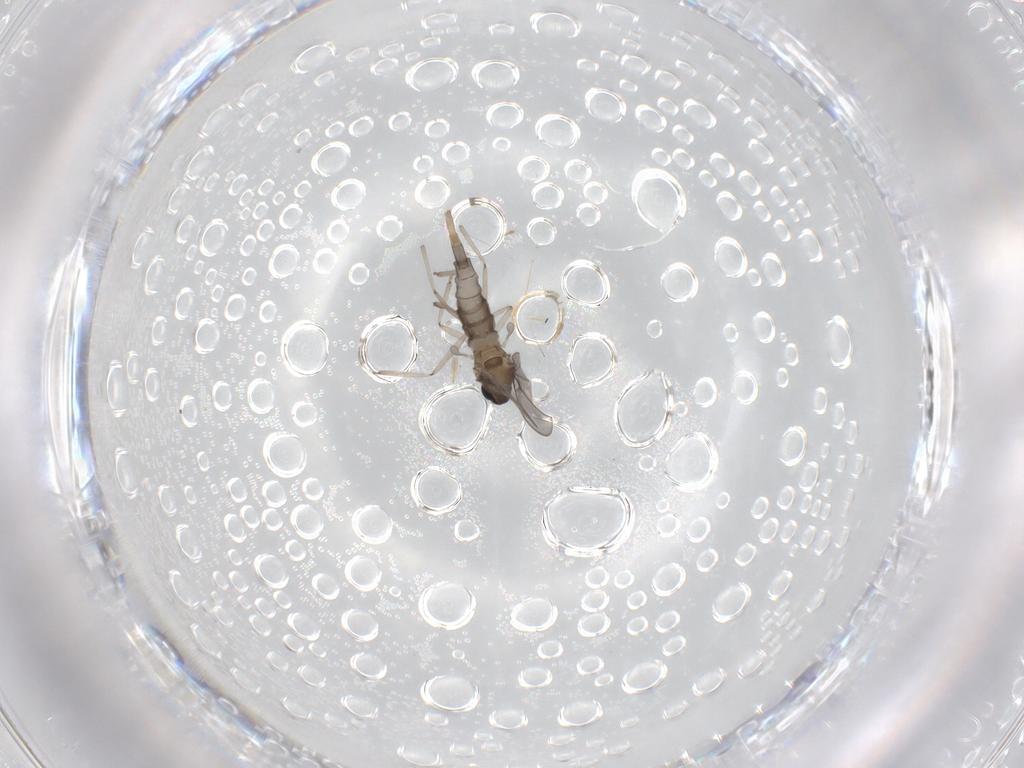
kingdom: Animalia
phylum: Arthropoda
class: Insecta
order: Diptera
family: Cecidomyiidae
